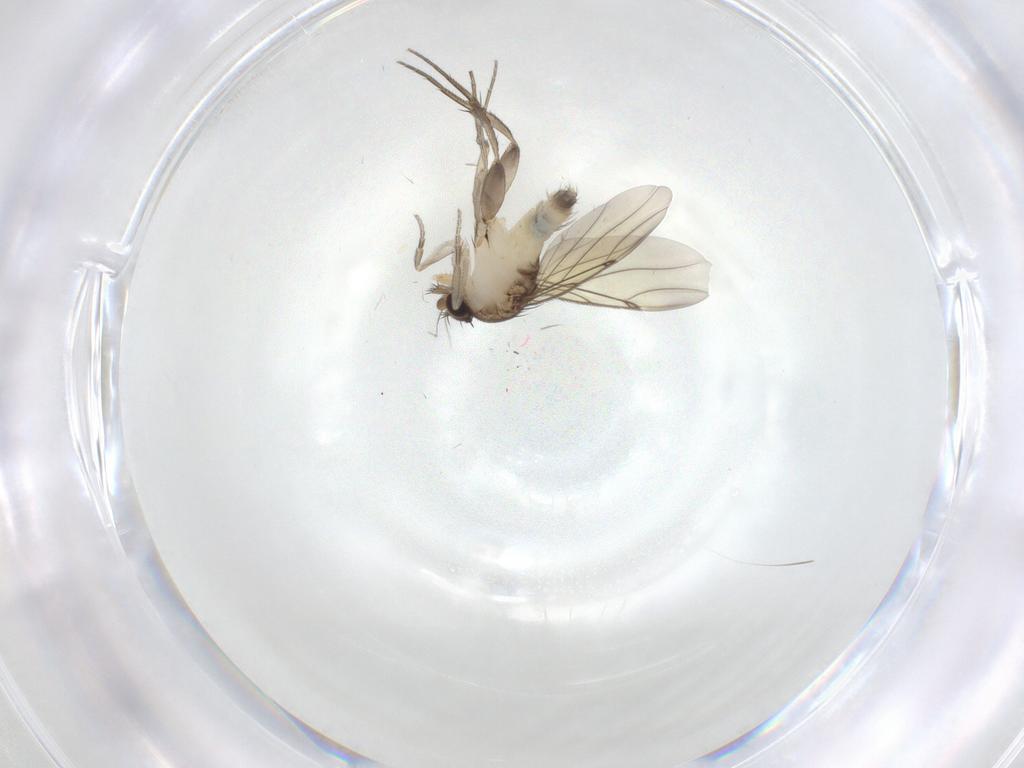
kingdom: Animalia
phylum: Arthropoda
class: Insecta
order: Diptera
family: Phoridae
